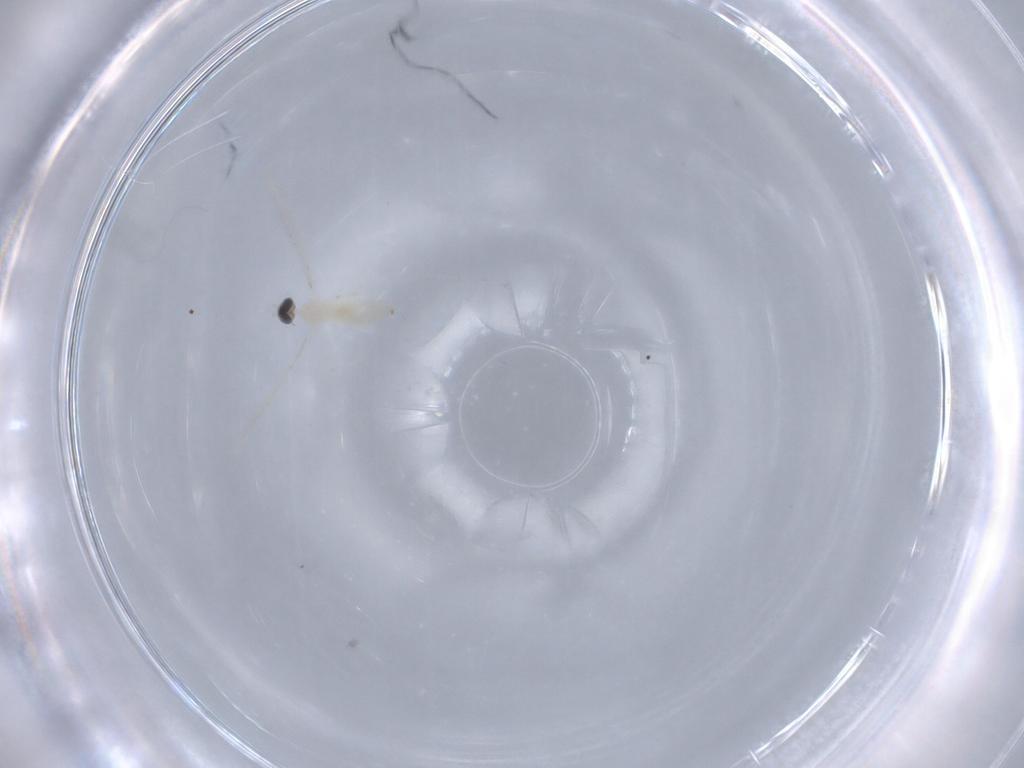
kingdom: Animalia
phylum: Arthropoda
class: Insecta
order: Diptera
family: Cecidomyiidae
